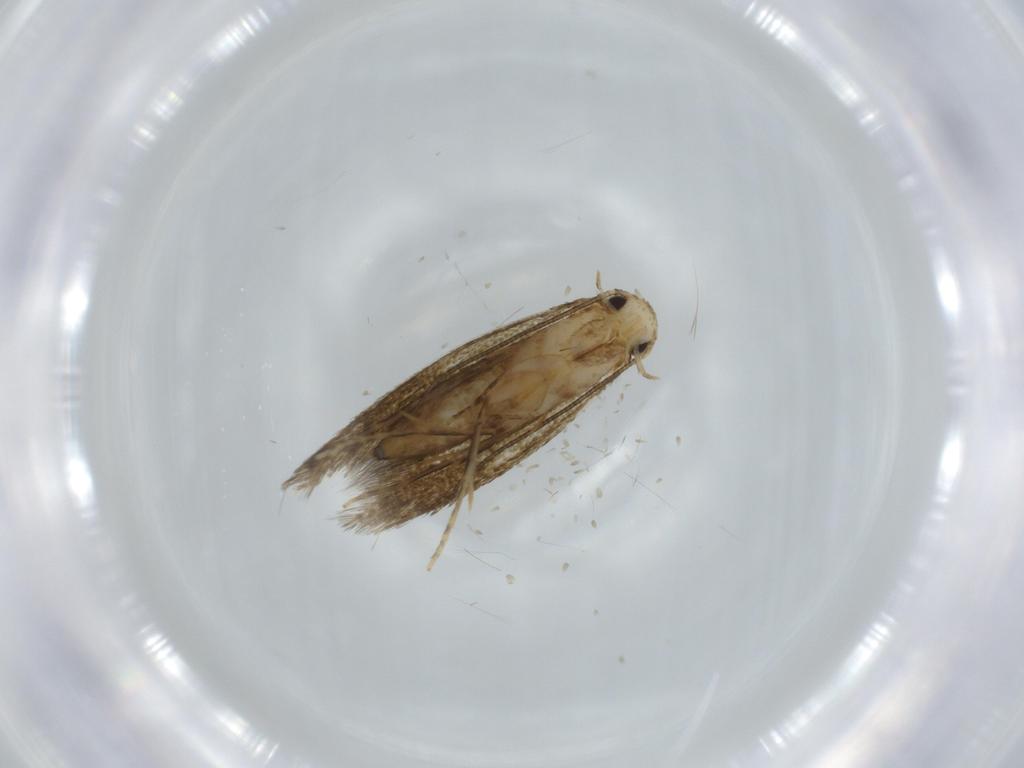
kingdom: Animalia
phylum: Arthropoda
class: Insecta
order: Lepidoptera
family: Tineidae
